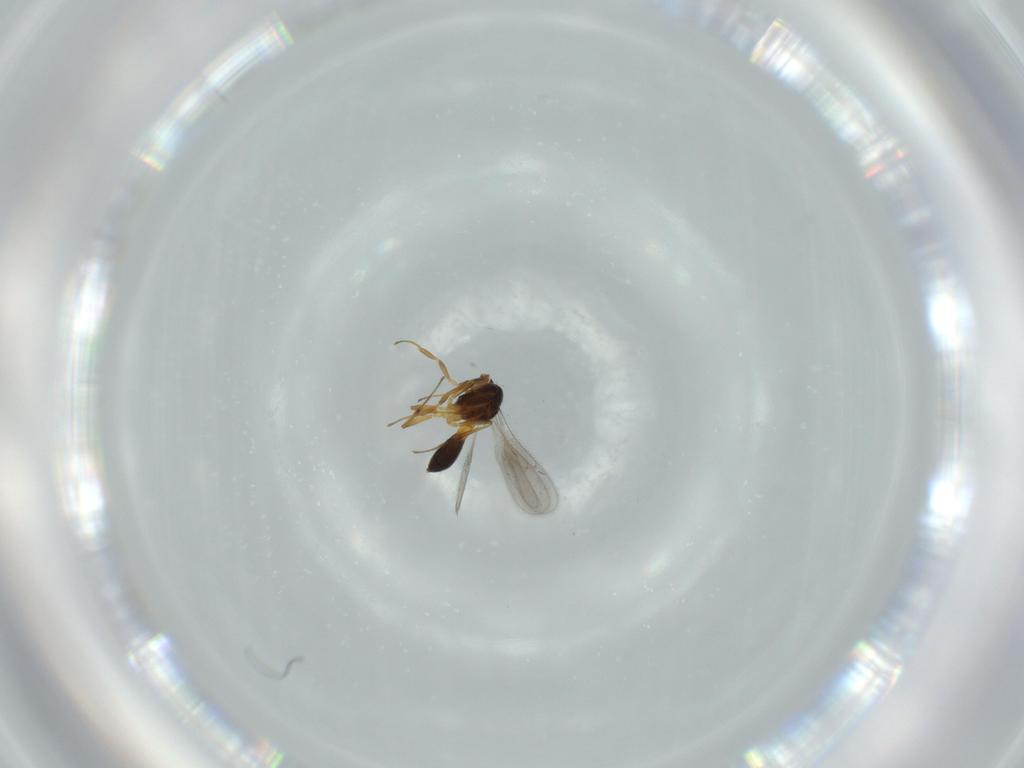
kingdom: Animalia
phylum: Arthropoda
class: Insecta
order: Hymenoptera
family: Scelionidae
